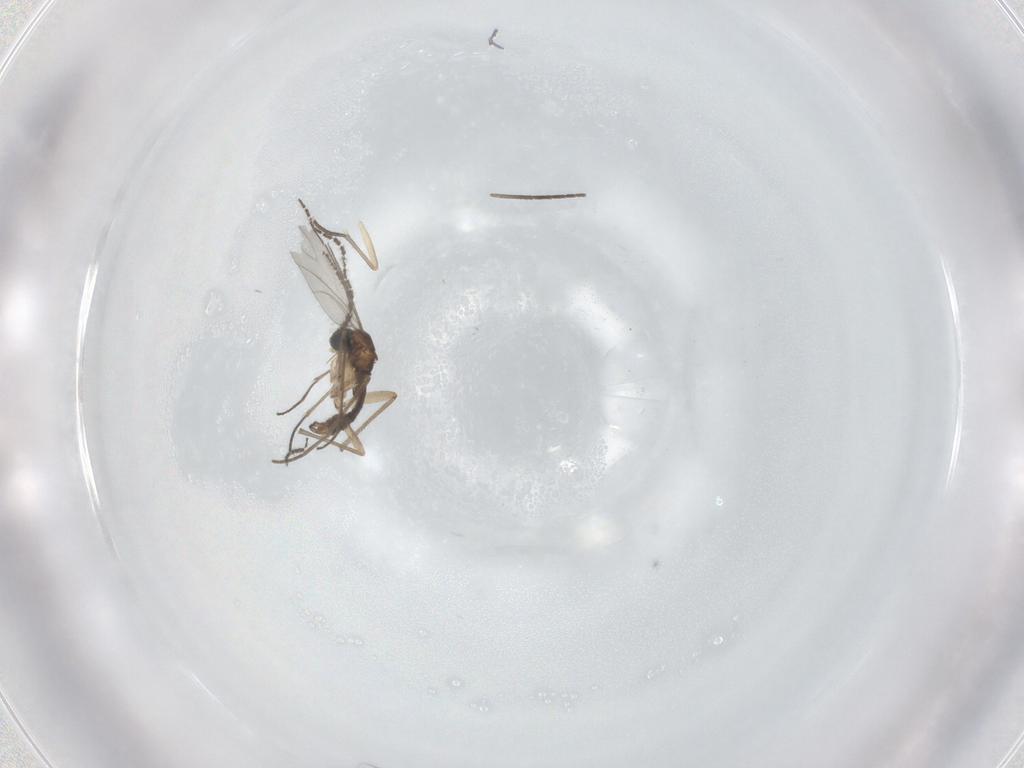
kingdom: Animalia
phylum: Arthropoda
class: Insecta
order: Diptera
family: Sciaridae
